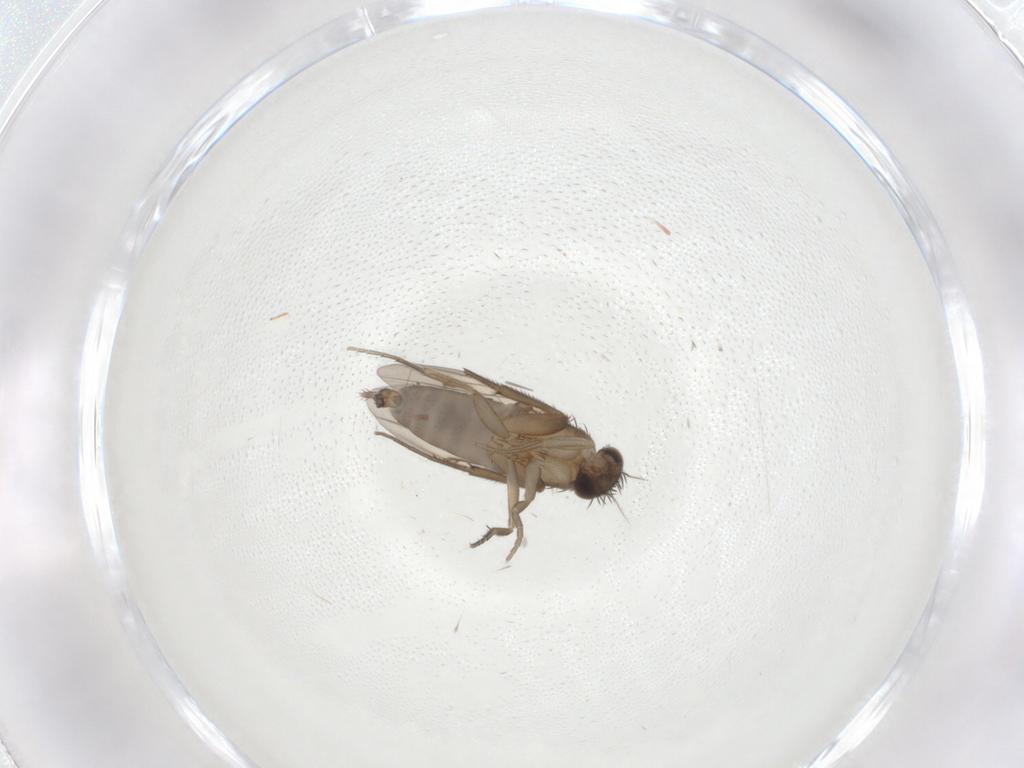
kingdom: Animalia
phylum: Arthropoda
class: Insecta
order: Diptera
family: Phoridae
